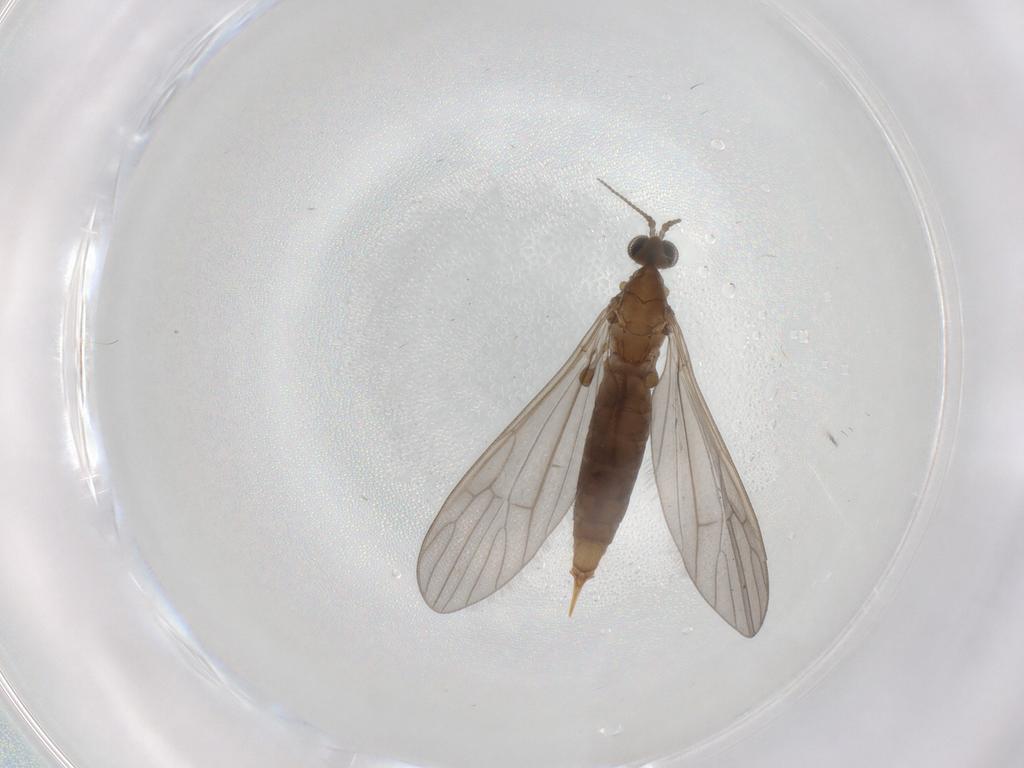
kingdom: Animalia
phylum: Arthropoda
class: Insecta
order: Diptera
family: Limoniidae
